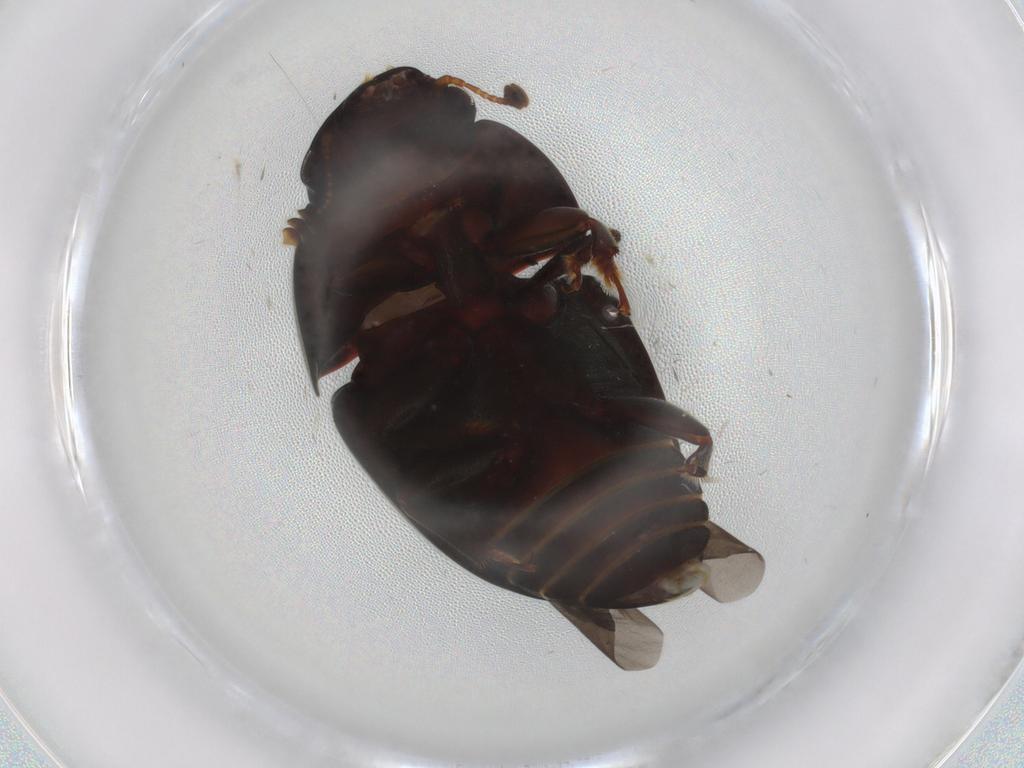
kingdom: Animalia
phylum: Arthropoda
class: Insecta
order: Coleoptera
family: Nitidulidae
